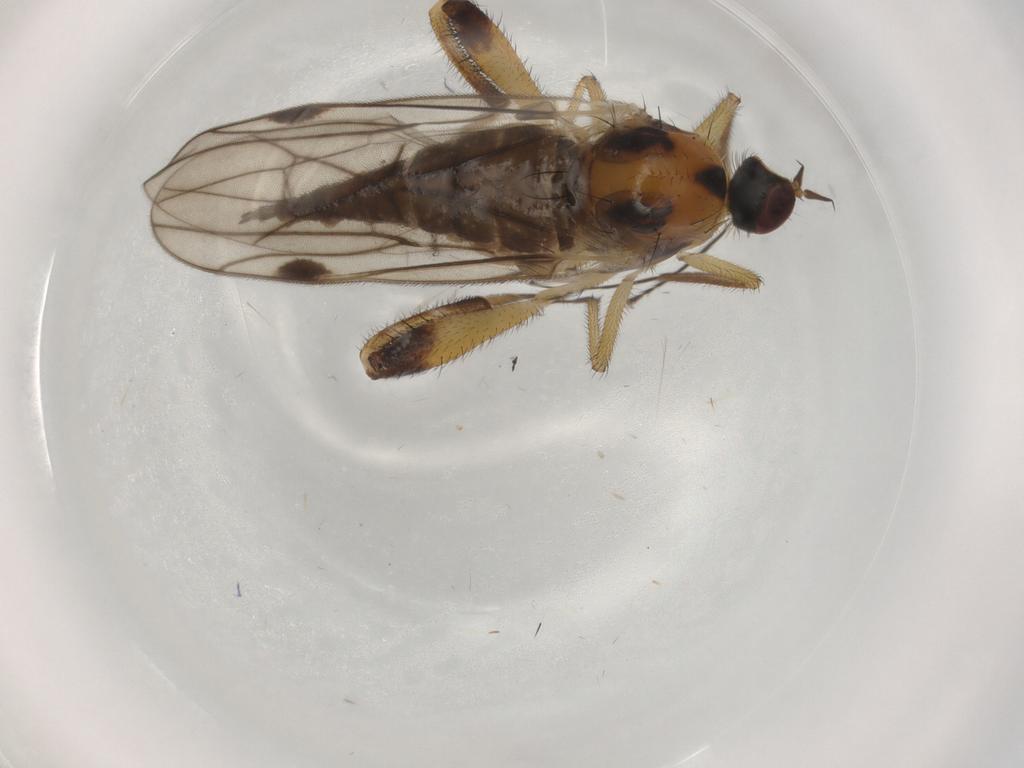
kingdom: Animalia
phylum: Arthropoda
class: Insecta
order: Diptera
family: Hybotidae
